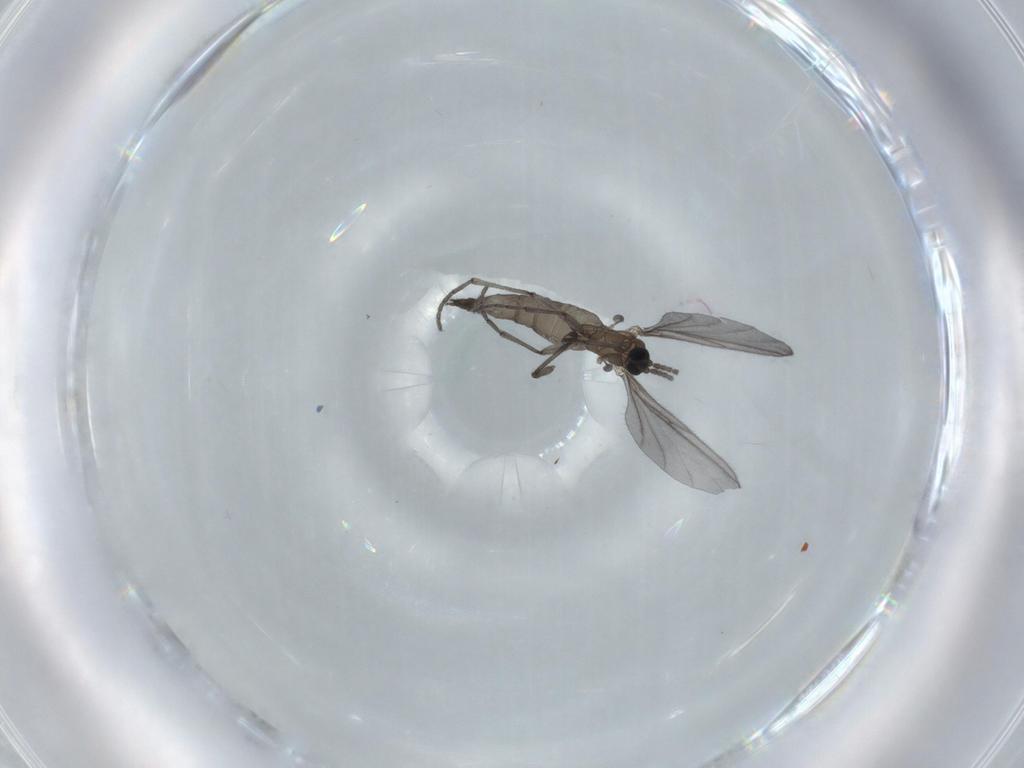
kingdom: Animalia
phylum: Arthropoda
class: Insecta
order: Diptera
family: Sciaridae
